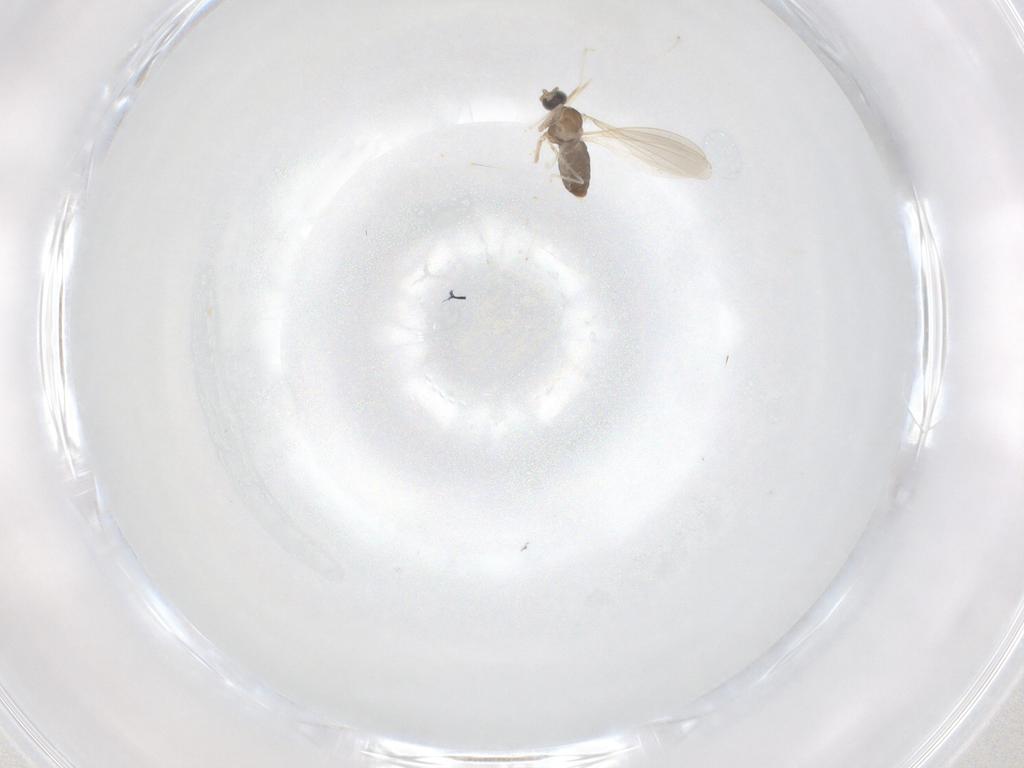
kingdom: Animalia
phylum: Arthropoda
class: Insecta
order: Diptera
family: Cecidomyiidae
